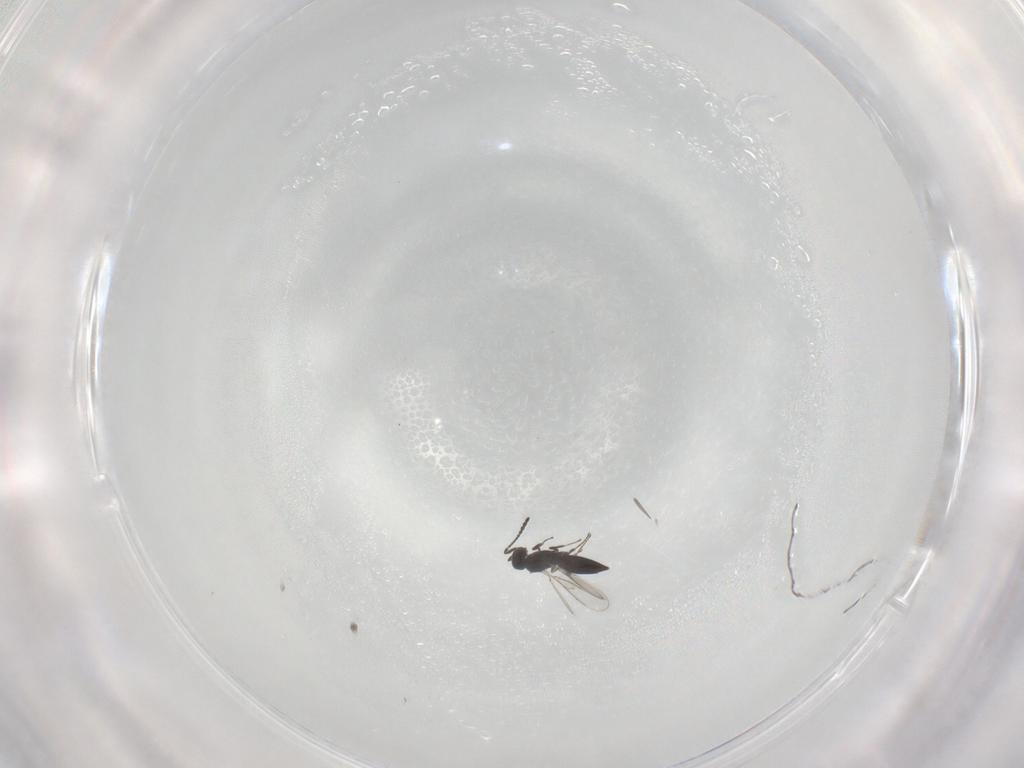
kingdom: Animalia
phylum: Arthropoda
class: Insecta
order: Hymenoptera
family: Scelionidae
